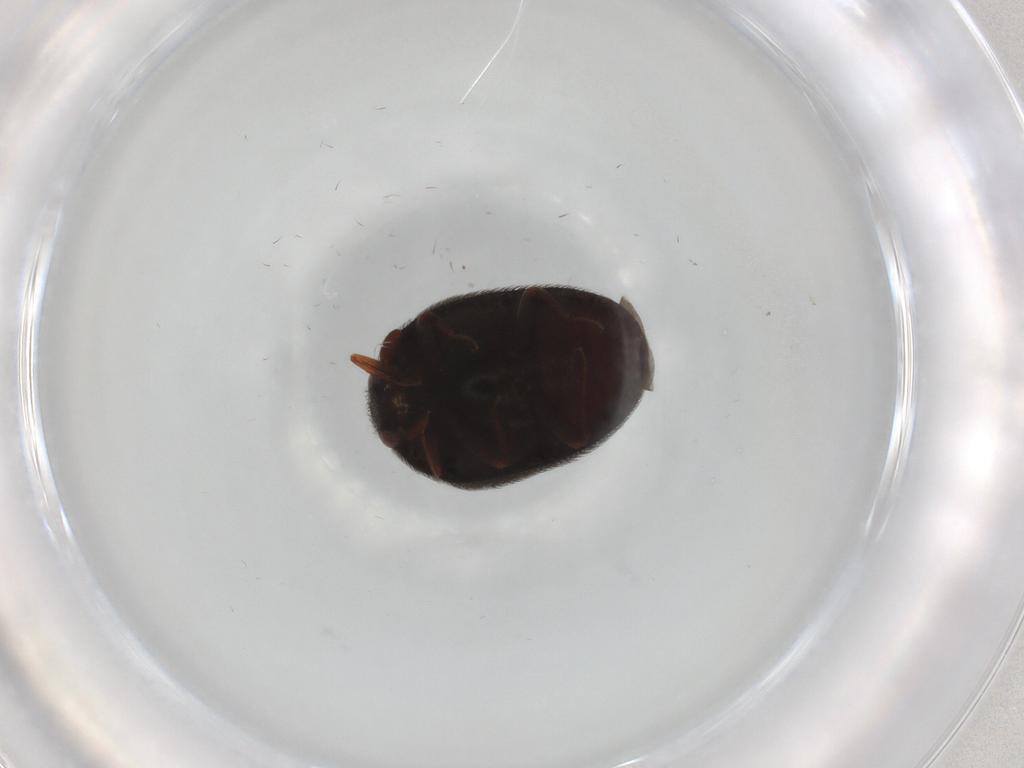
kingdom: Animalia
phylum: Arthropoda
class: Insecta
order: Coleoptera
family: Dermestidae
